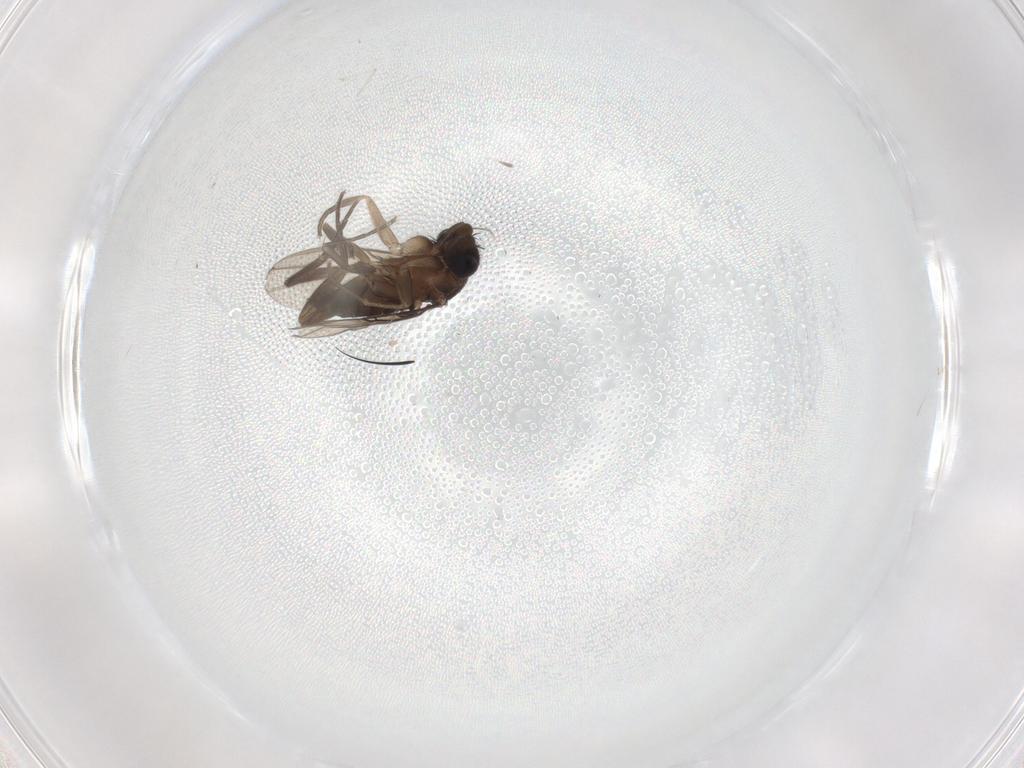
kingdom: Animalia
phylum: Arthropoda
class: Insecta
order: Diptera
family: Phoridae
